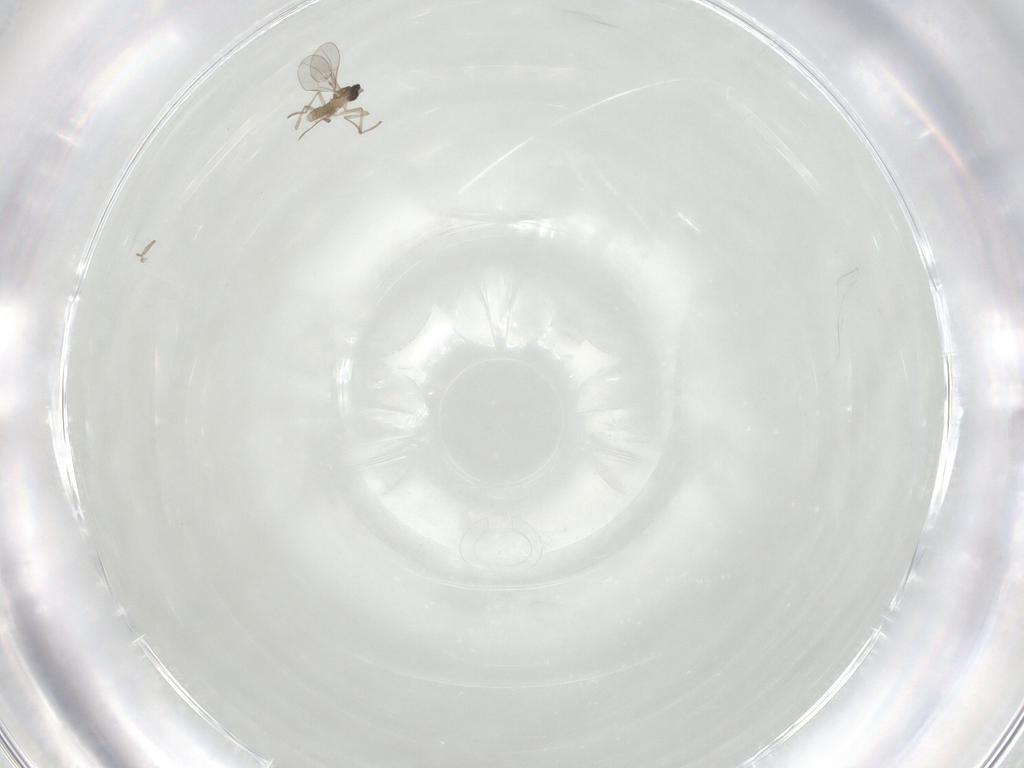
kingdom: Animalia
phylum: Arthropoda
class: Insecta
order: Diptera
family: Cecidomyiidae
